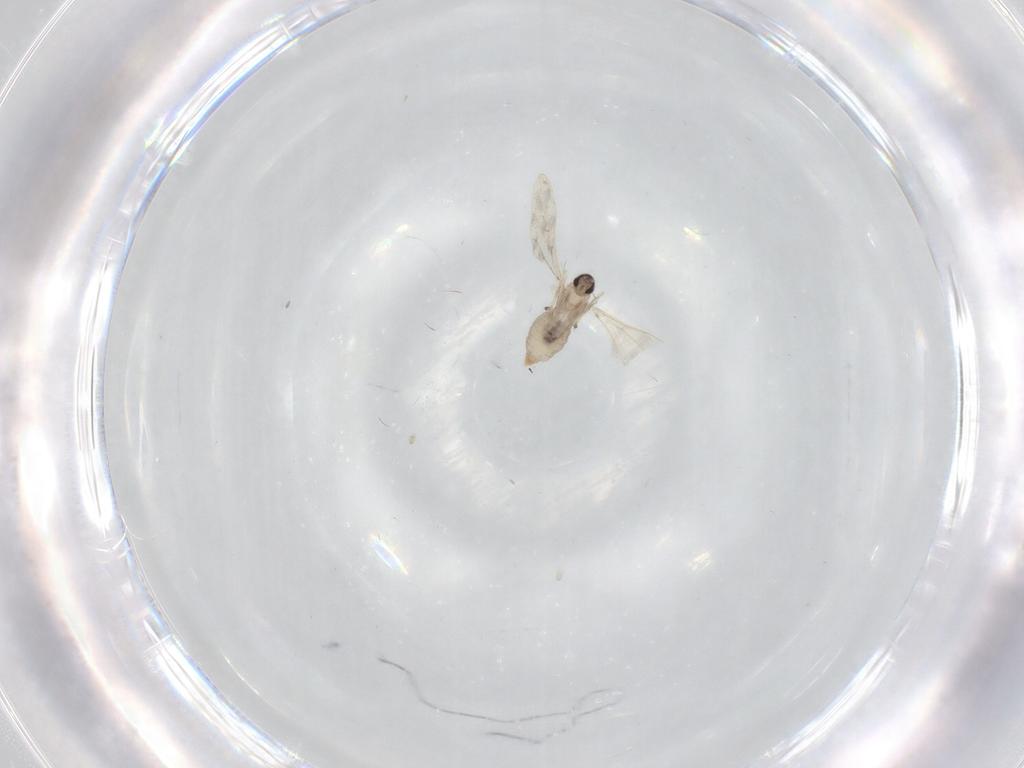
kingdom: Animalia
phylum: Arthropoda
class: Insecta
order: Diptera
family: Cecidomyiidae
